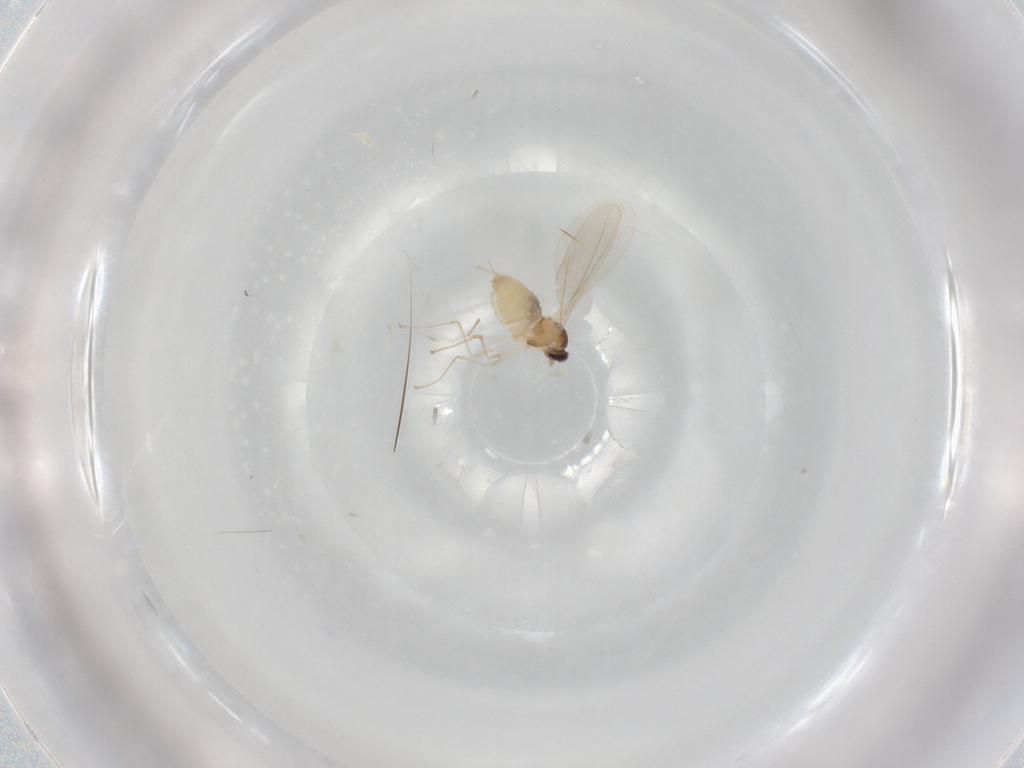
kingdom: Animalia
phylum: Arthropoda
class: Insecta
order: Diptera
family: Cecidomyiidae
